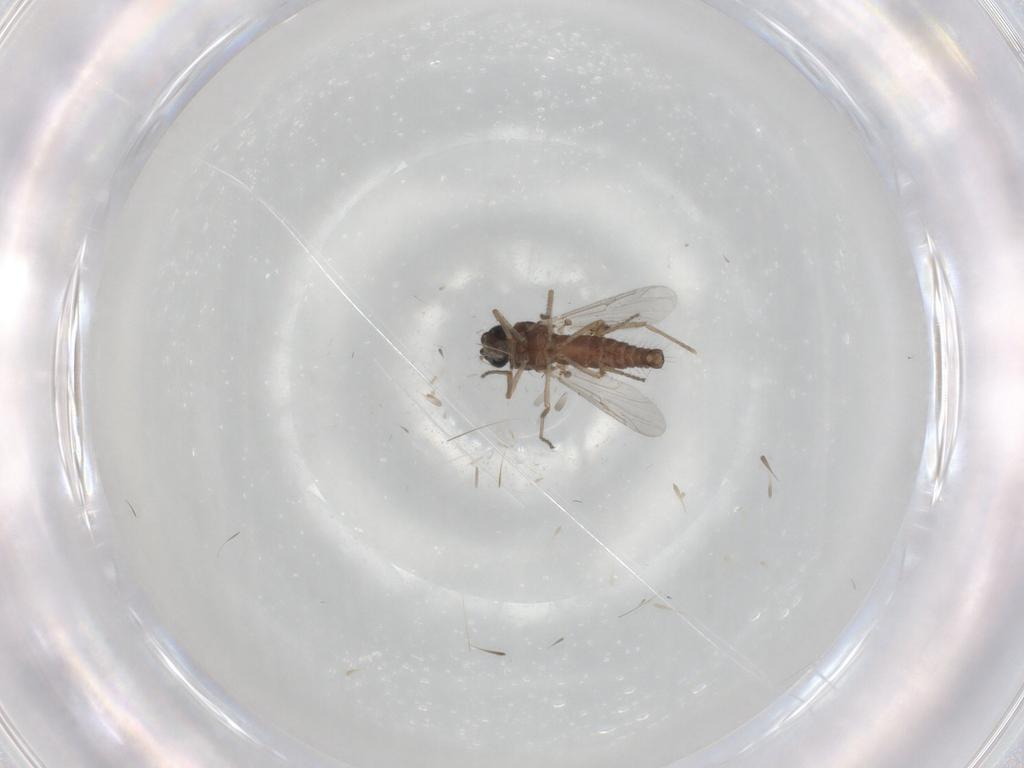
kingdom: Animalia
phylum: Arthropoda
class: Insecta
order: Diptera
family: Ceratopogonidae
